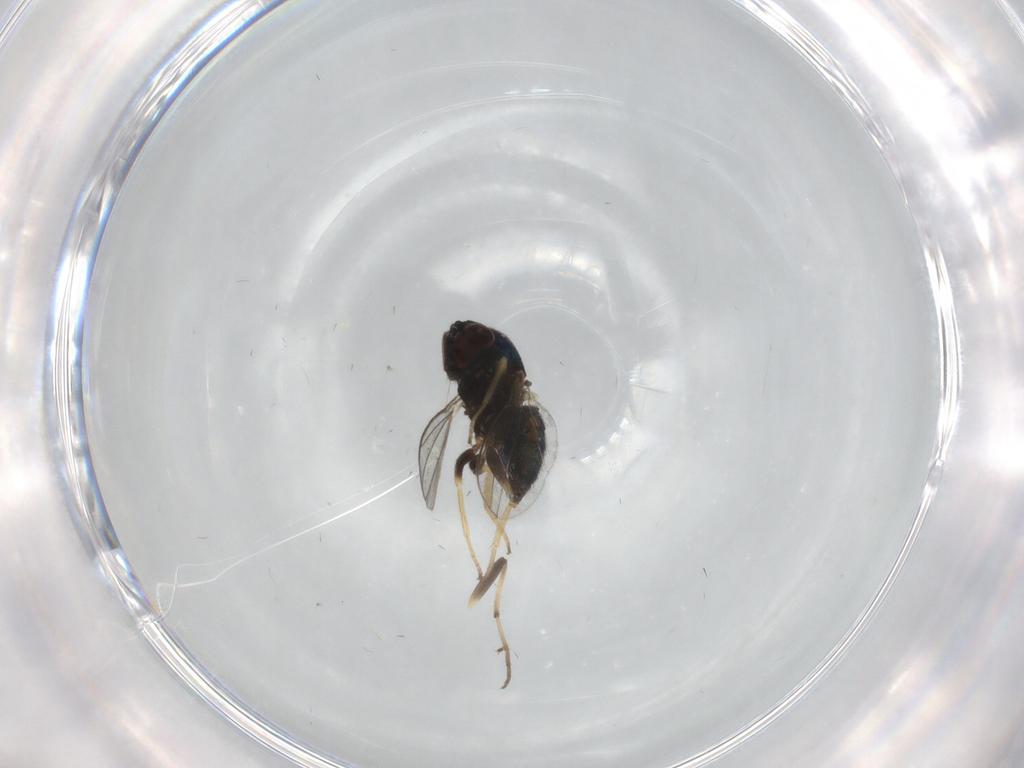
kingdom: Animalia
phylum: Arthropoda
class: Insecta
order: Diptera
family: Dolichopodidae
